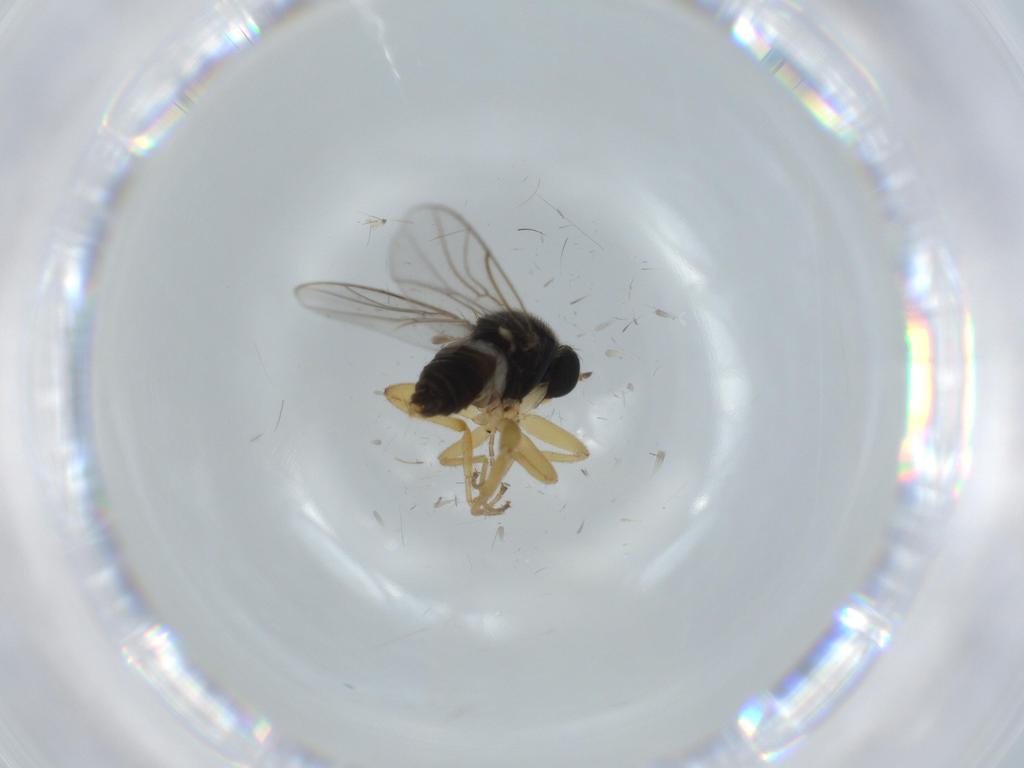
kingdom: Animalia
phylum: Arthropoda
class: Insecta
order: Diptera
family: Hybotidae
